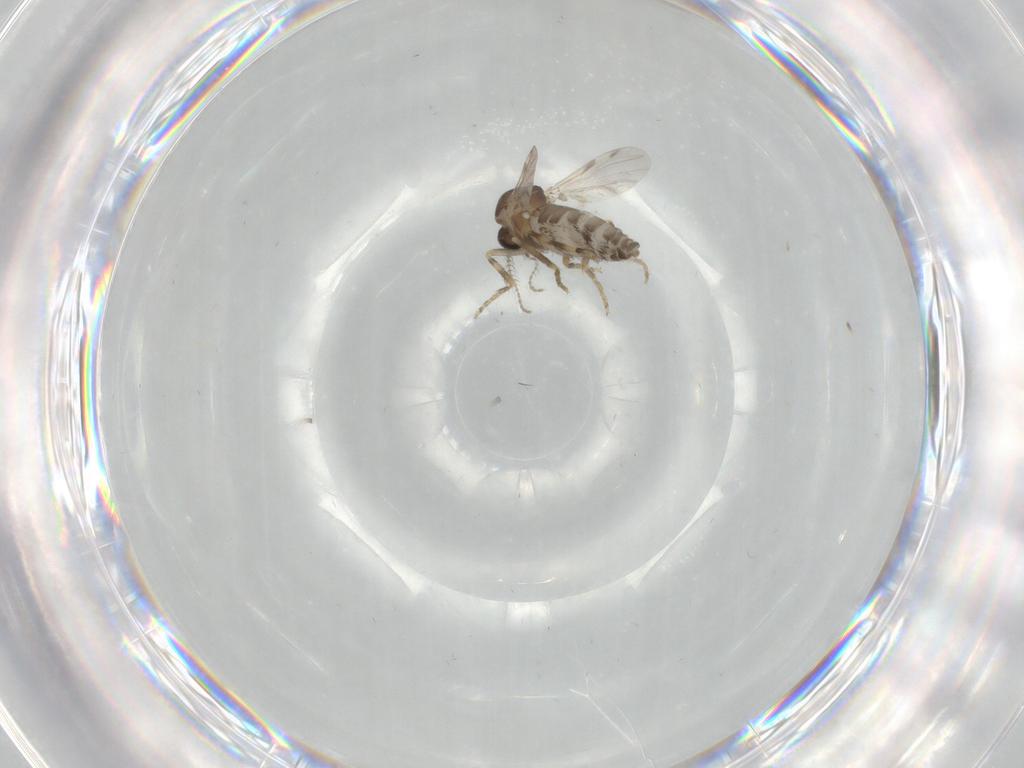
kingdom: Animalia
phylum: Arthropoda
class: Insecta
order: Diptera
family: Ceratopogonidae
